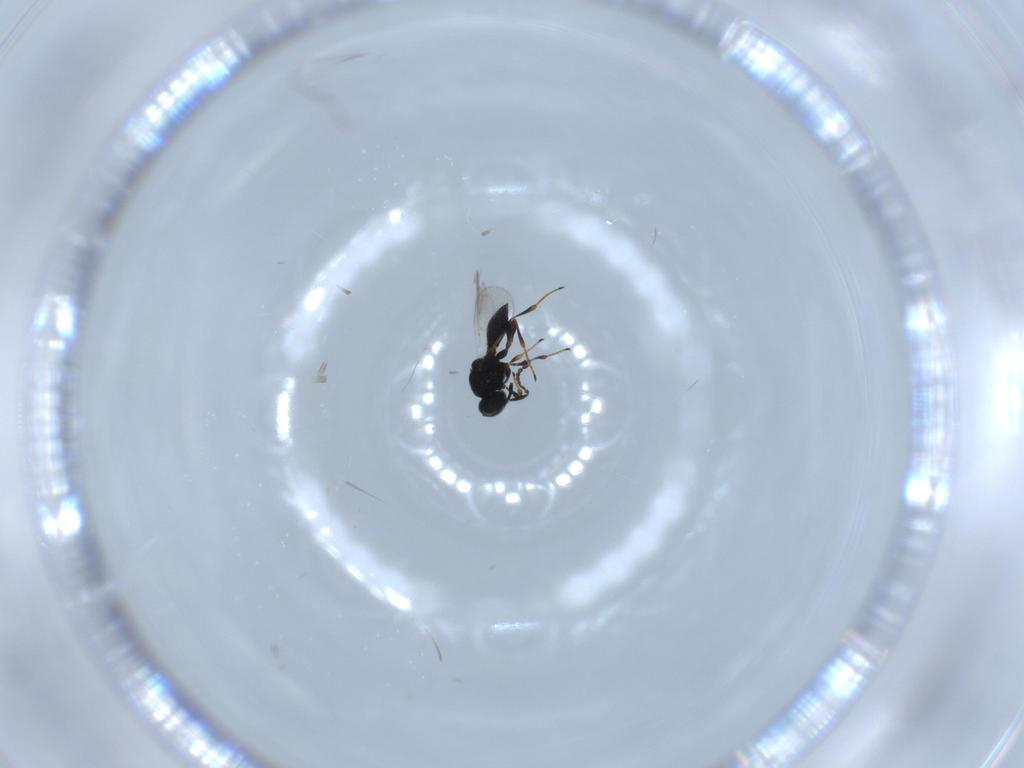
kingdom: Animalia
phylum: Arthropoda
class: Insecta
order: Hymenoptera
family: Platygastridae
